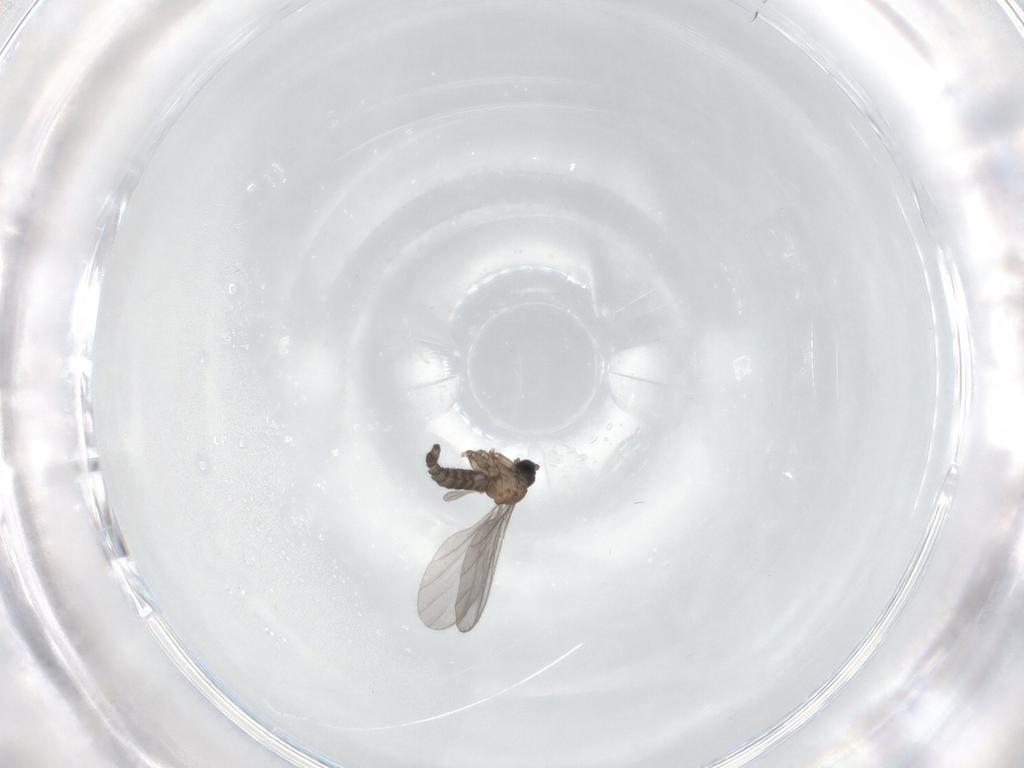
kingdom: Animalia
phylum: Arthropoda
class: Insecta
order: Diptera
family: Sciaridae
